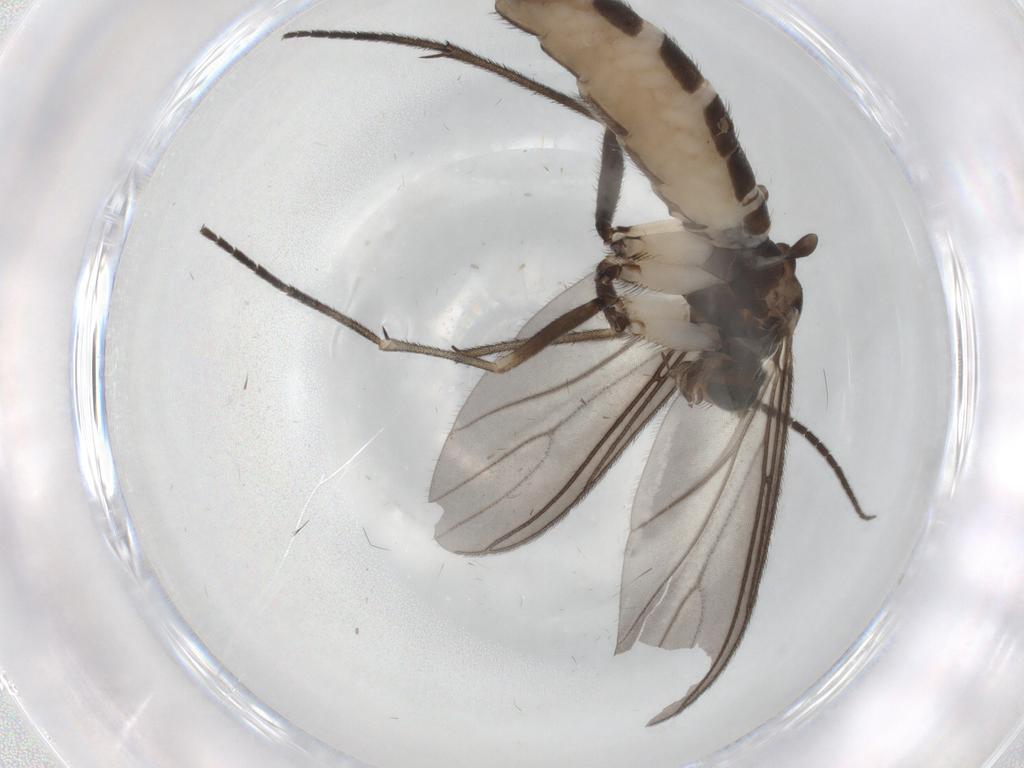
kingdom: Animalia
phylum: Arthropoda
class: Insecta
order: Diptera
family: Sciaridae
